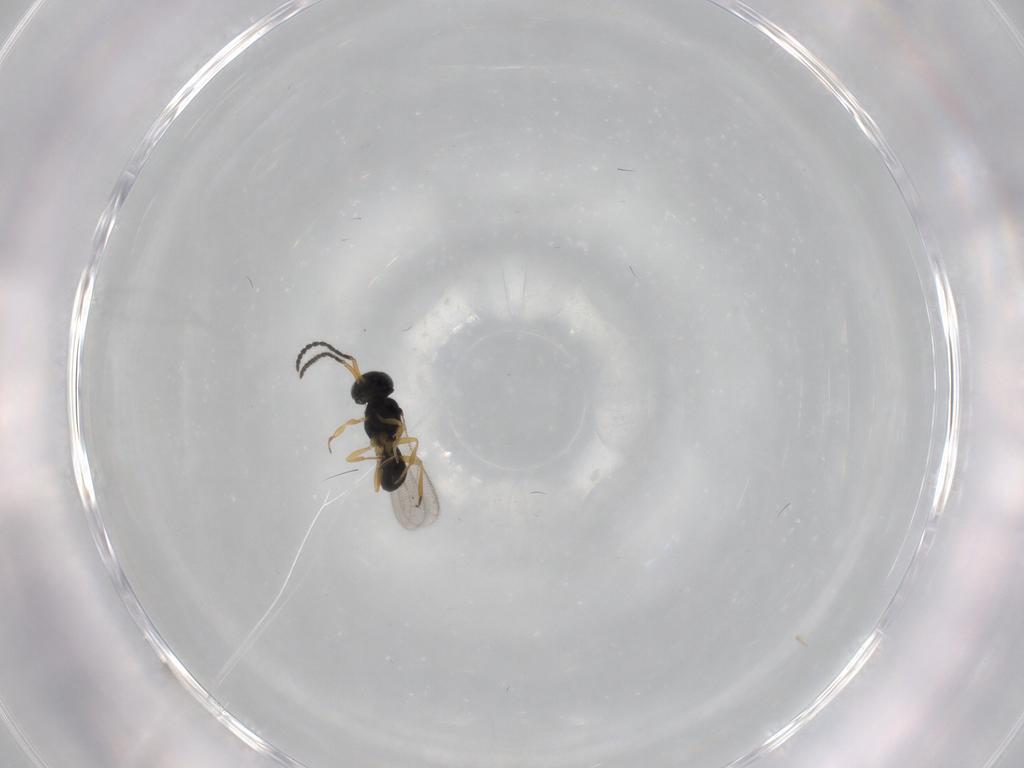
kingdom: Animalia
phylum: Arthropoda
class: Insecta
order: Hymenoptera
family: Scelionidae
